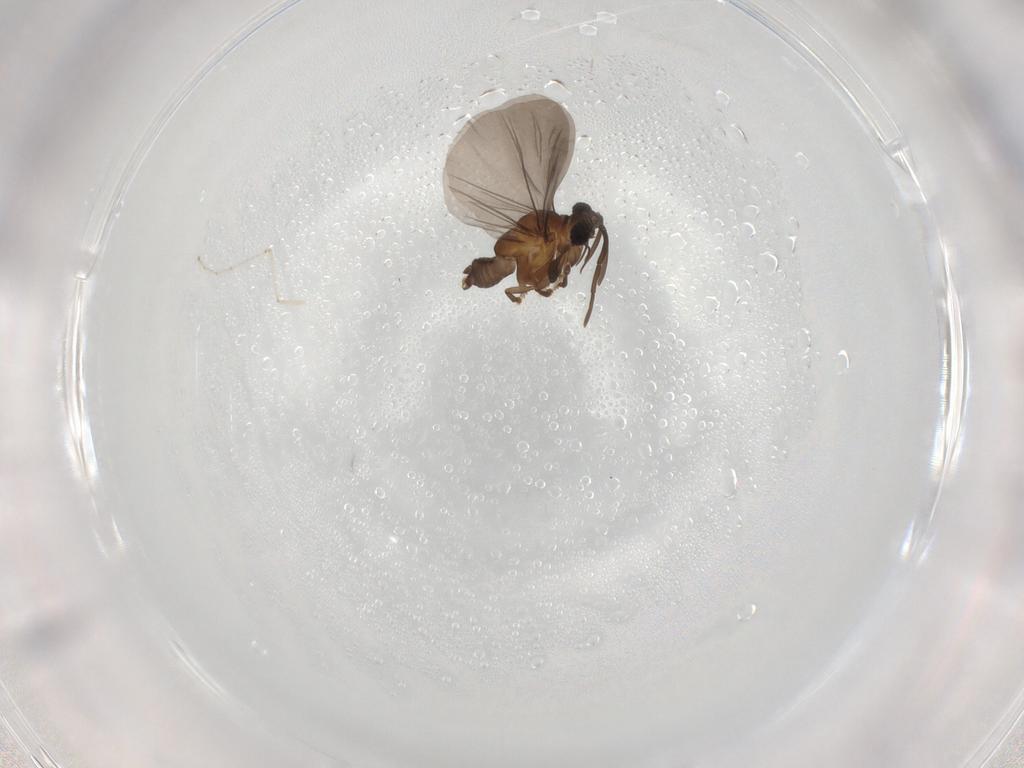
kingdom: Animalia
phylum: Arthropoda
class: Insecta
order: Strepsiptera
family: Lychnocolacidae
